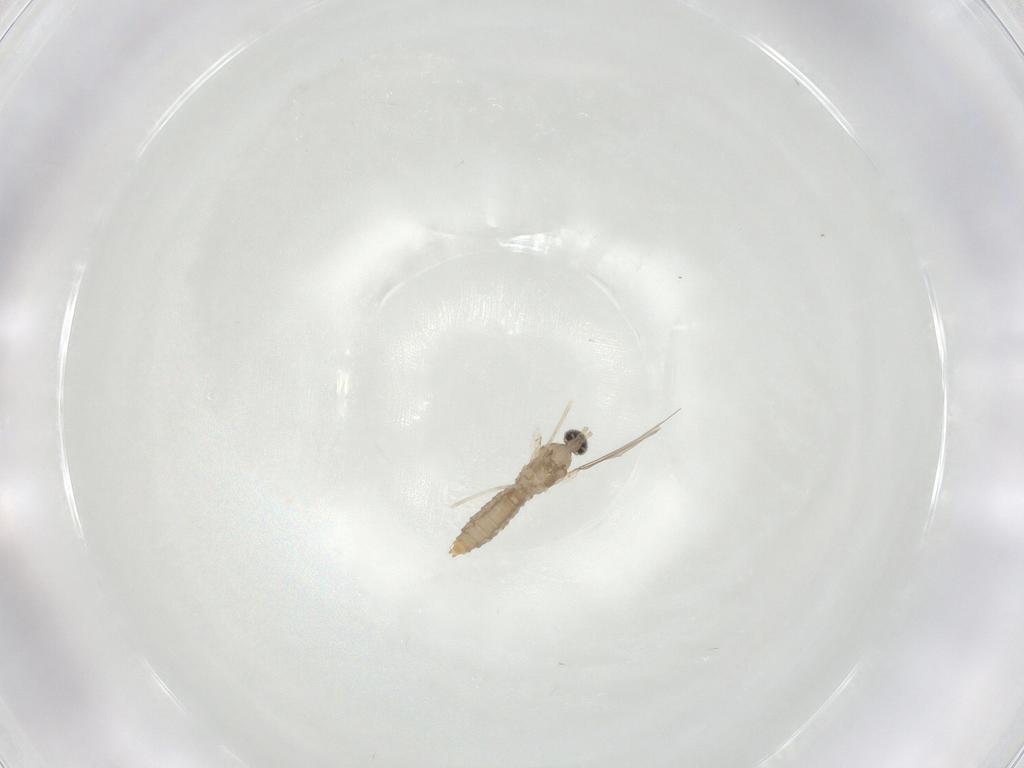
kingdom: Animalia
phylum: Arthropoda
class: Insecta
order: Diptera
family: Cecidomyiidae
